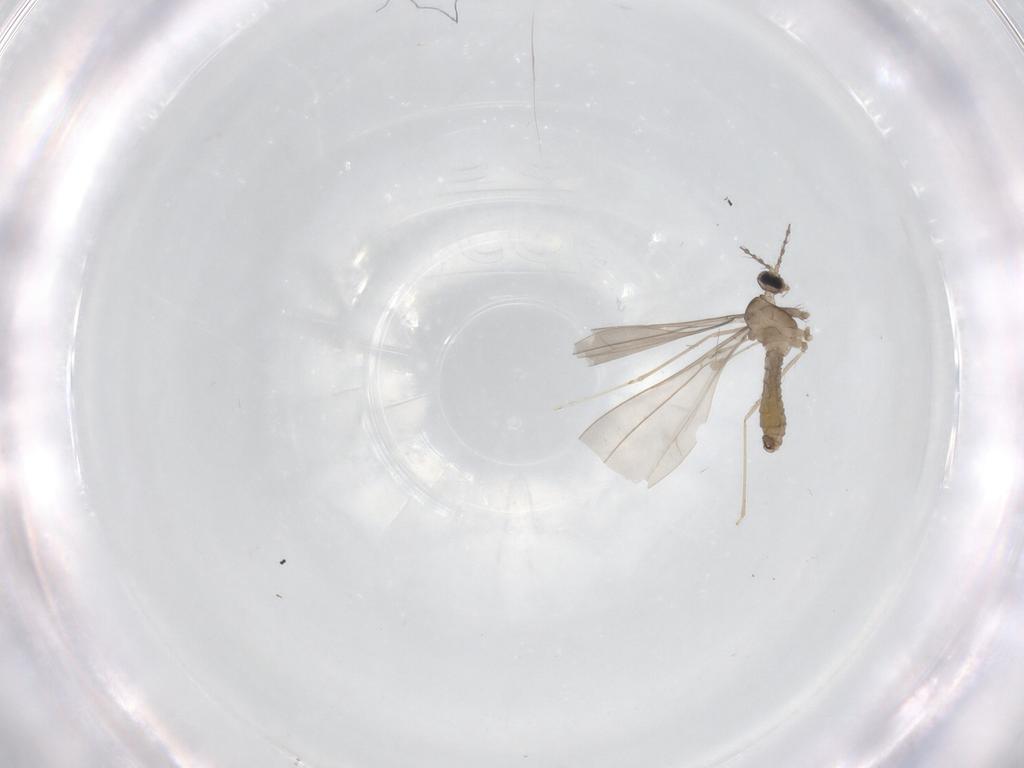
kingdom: Animalia
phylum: Arthropoda
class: Insecta
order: Diptera
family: Cecidomyiidae
